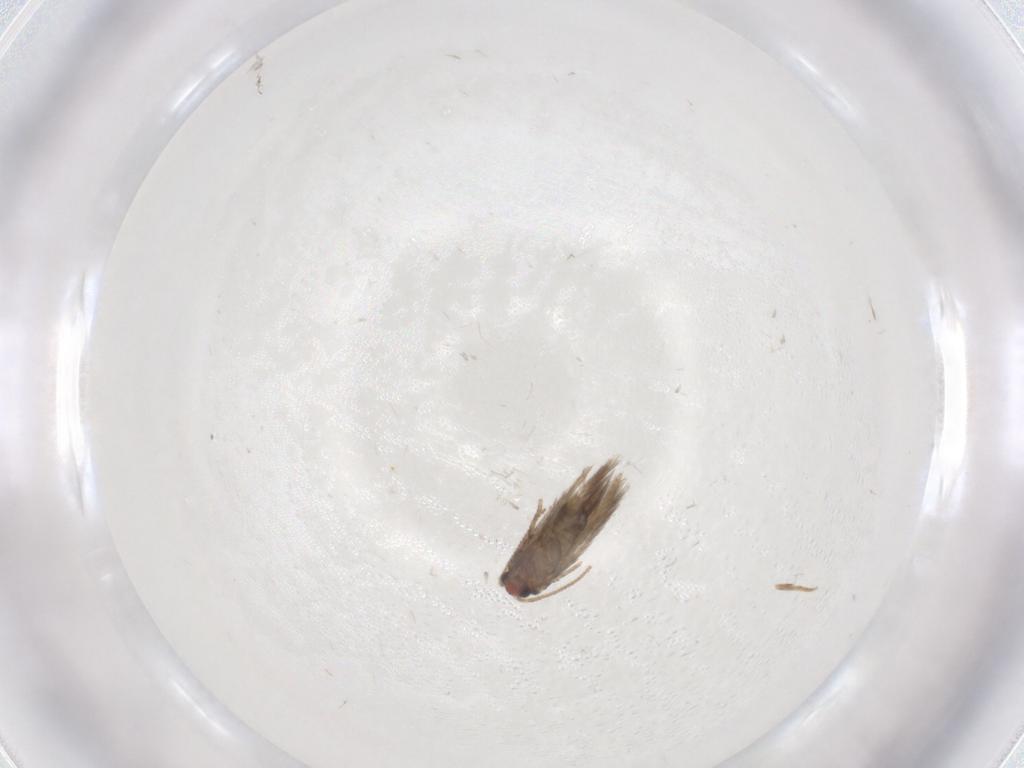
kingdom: Animalia
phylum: Arthropoda
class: Insecta
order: Lepidoptera
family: Nepticulidae
